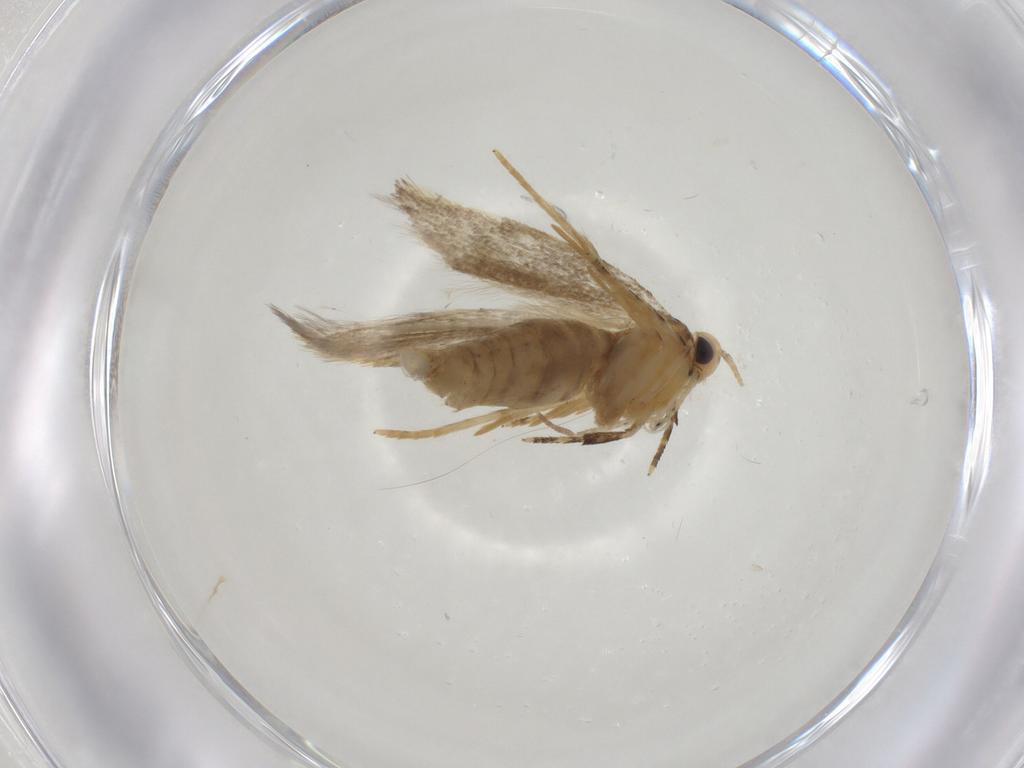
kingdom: Animalia
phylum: Arthropoda
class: Insecta
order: Lepidoptera
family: Autostichidae
